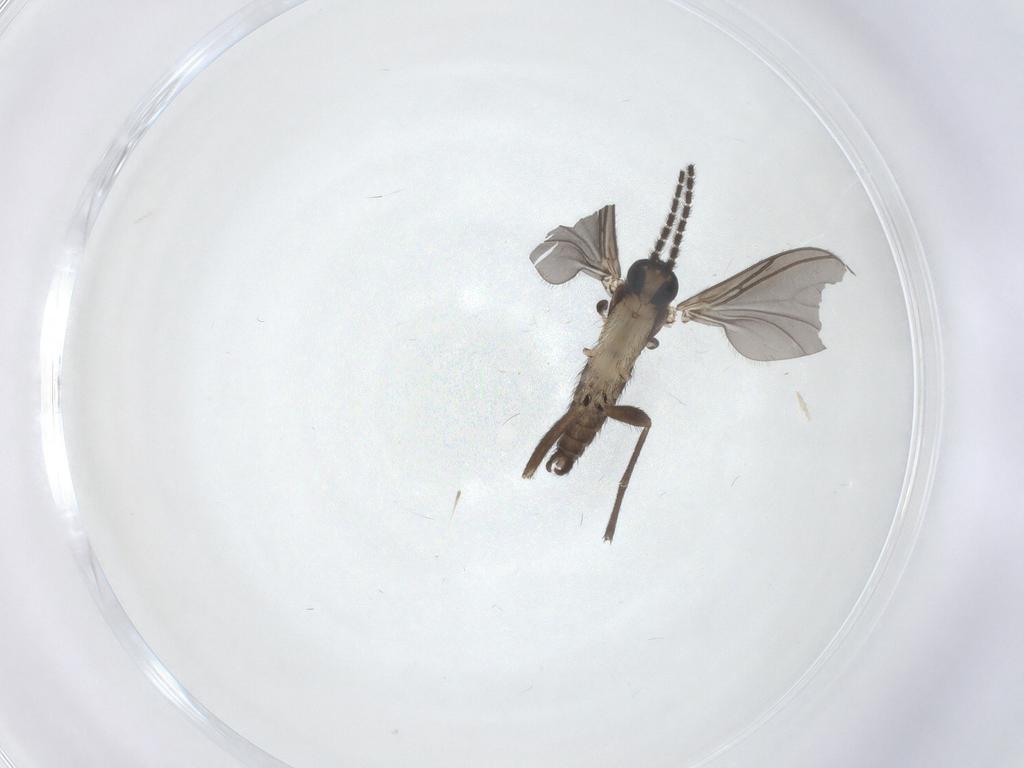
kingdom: Animalia
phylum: Arthropoda
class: Insecta
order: Diptera
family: Sciaridae
